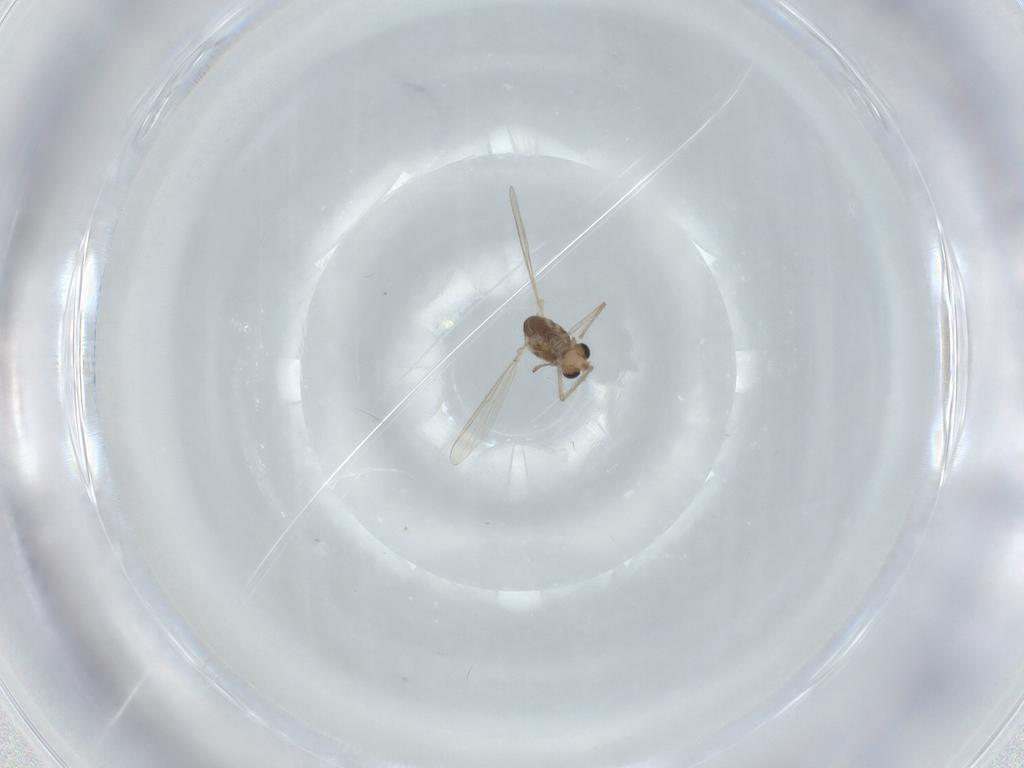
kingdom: Animalia
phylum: Arthropoda
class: Insecta
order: Diptera
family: Chironomidae
